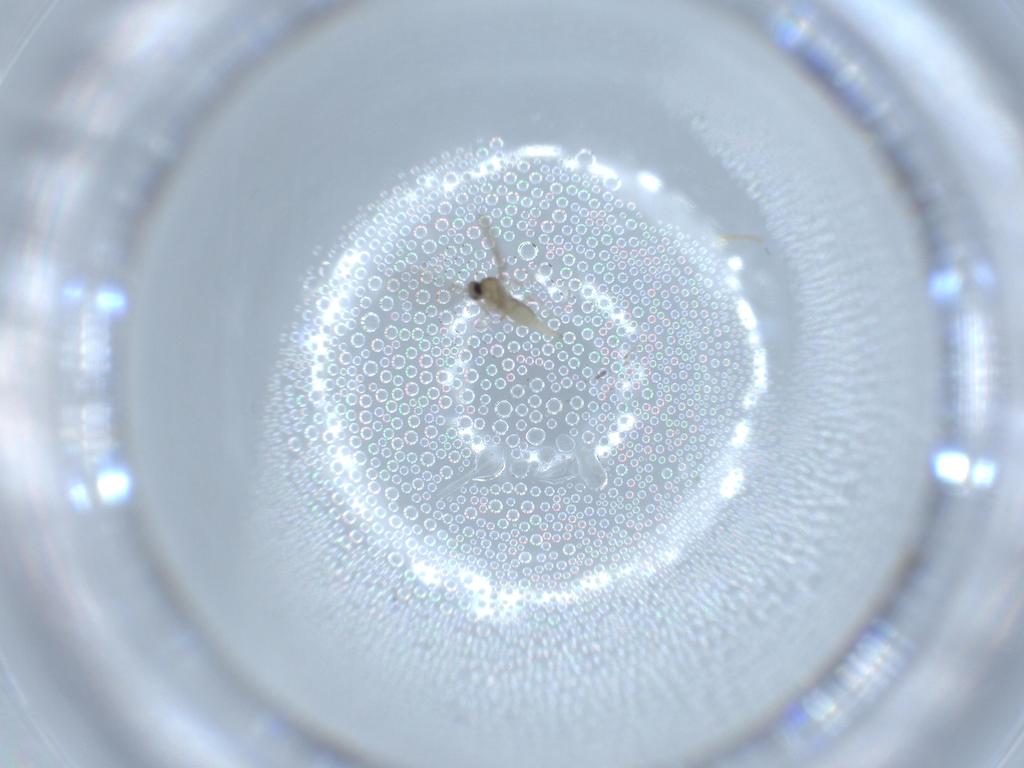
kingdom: Animalia
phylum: Arthropoda
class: Insecta
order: Diptera
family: Cecidomyiidae
